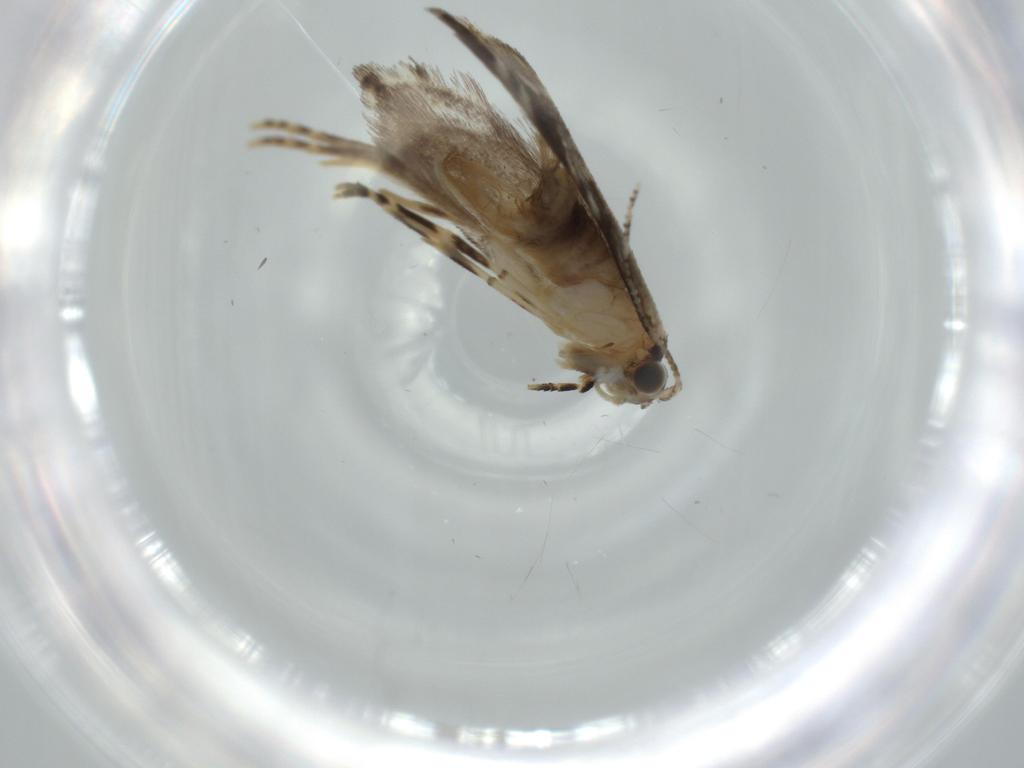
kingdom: Animalia
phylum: Arthropoda
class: Insecta
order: Lepidoptera
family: Tineidae
